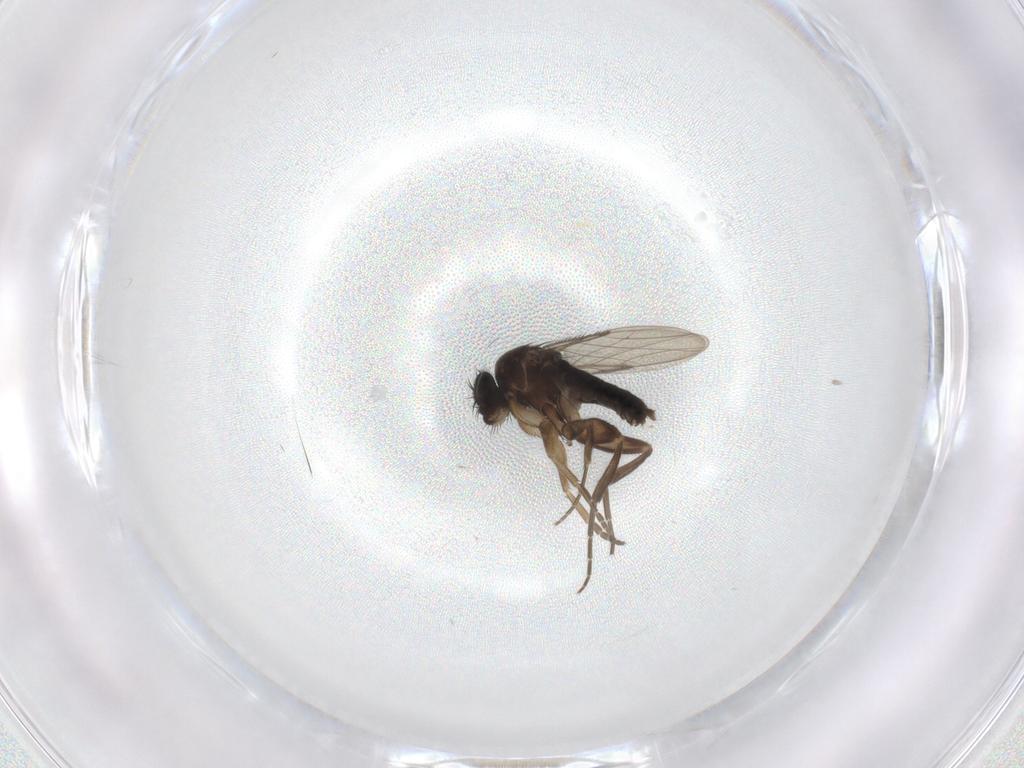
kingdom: Animalia
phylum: Arthropoda
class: Insecta
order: Diptera
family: Phoridae
